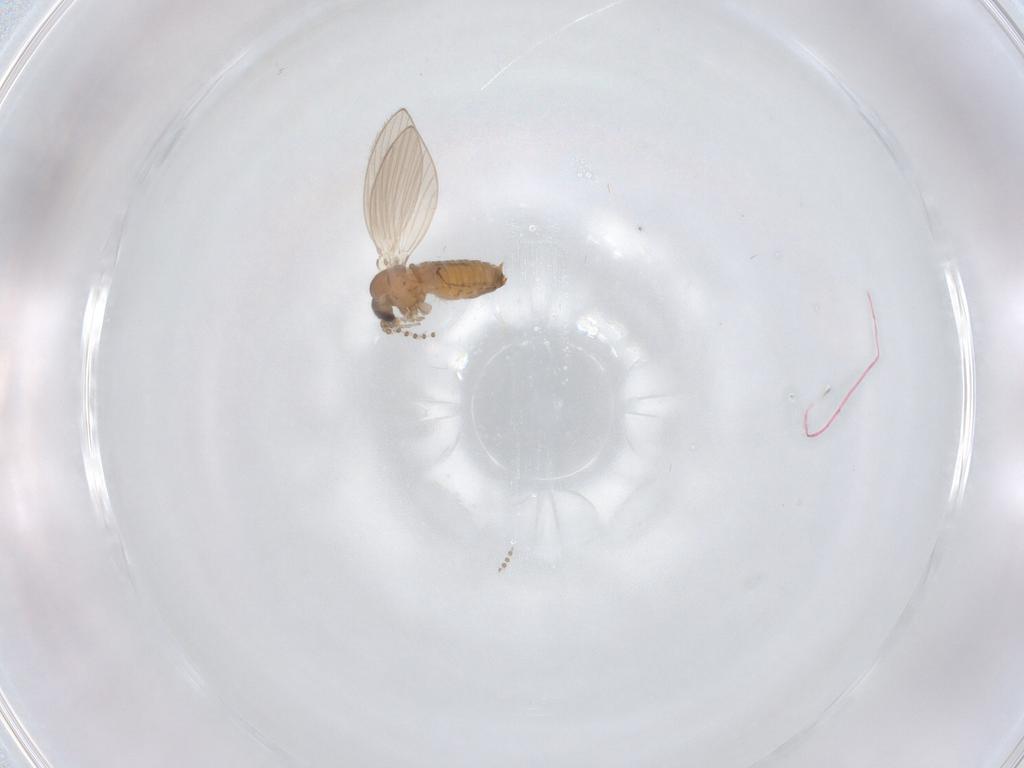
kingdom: Animalia
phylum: Arthropoda
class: Insecta
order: Diptera
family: Psychodidae
